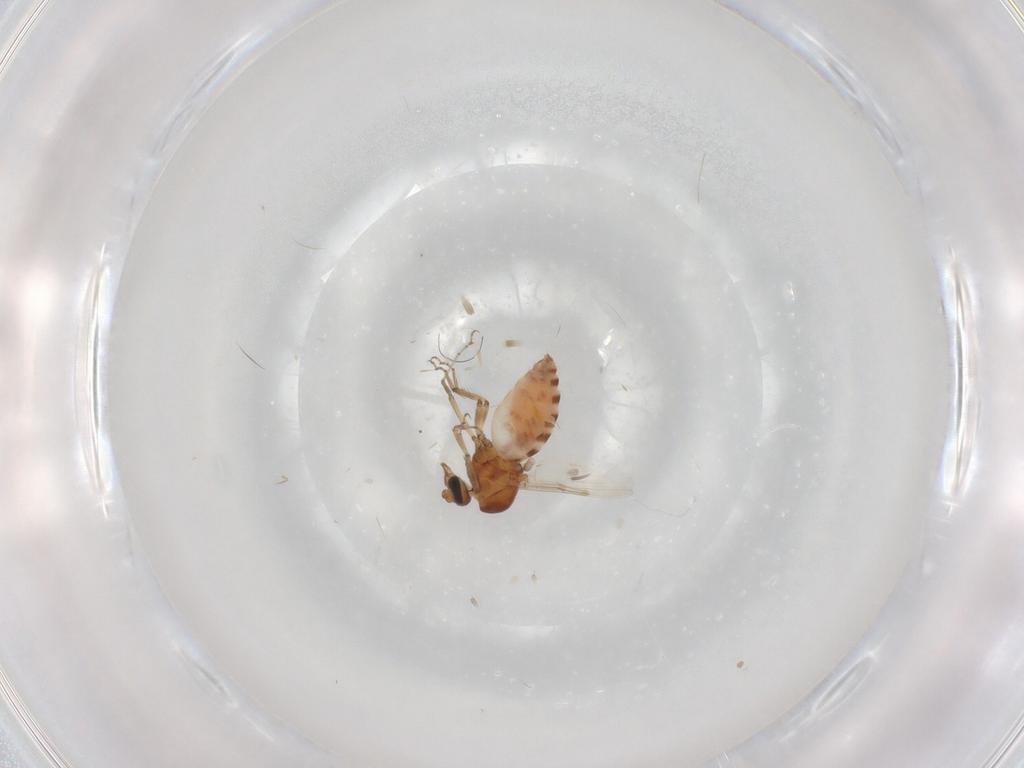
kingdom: Animalia
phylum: Arthropoda
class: Insecta
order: Diptera
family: Ceratopogonidae
